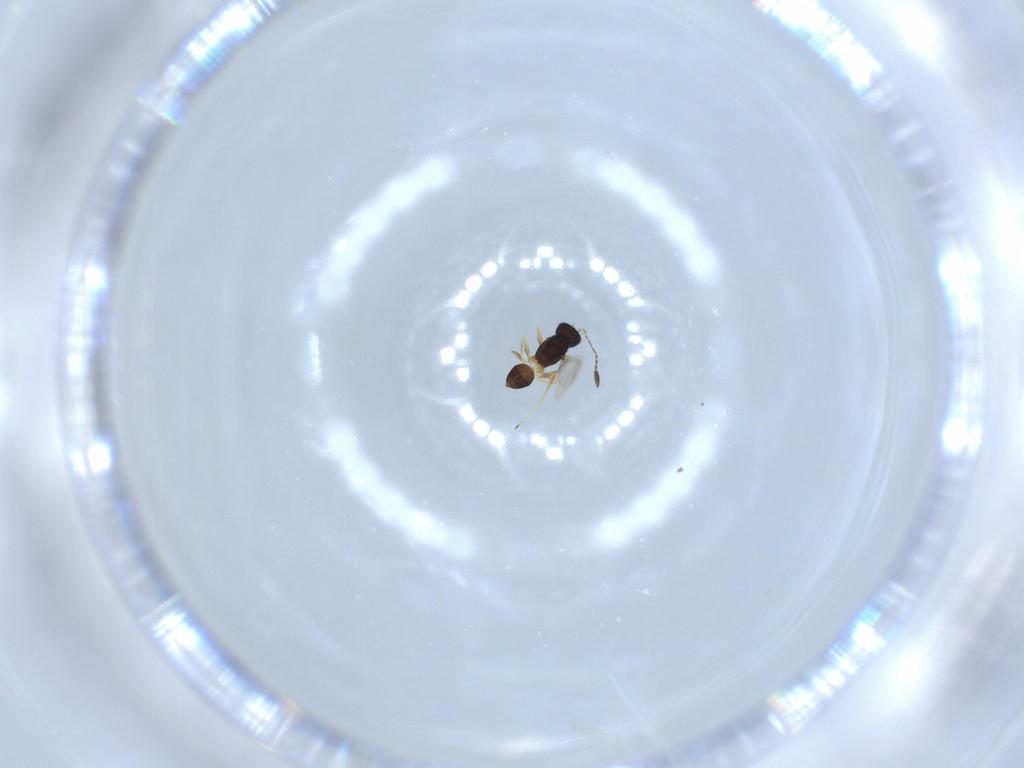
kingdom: Animalia
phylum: Arthropoda
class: Insecta
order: Hymenoptera
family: Mymaridae
